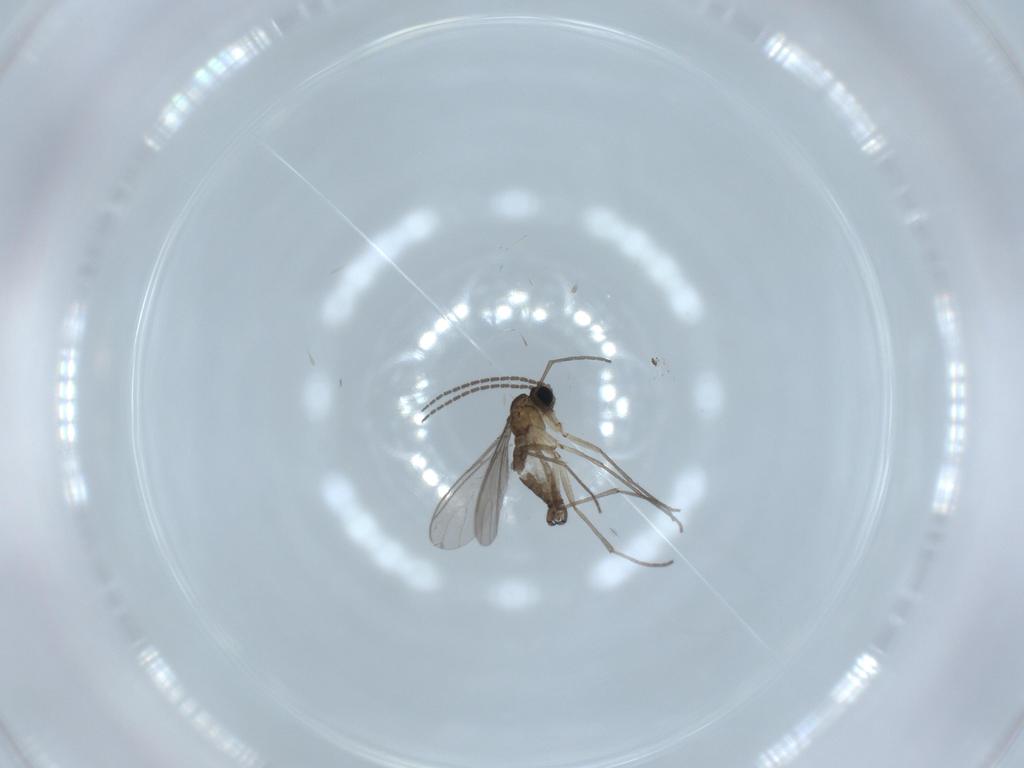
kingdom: Animalia
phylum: Arthropoda
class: Insecta
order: Diptera
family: Sciaridae
